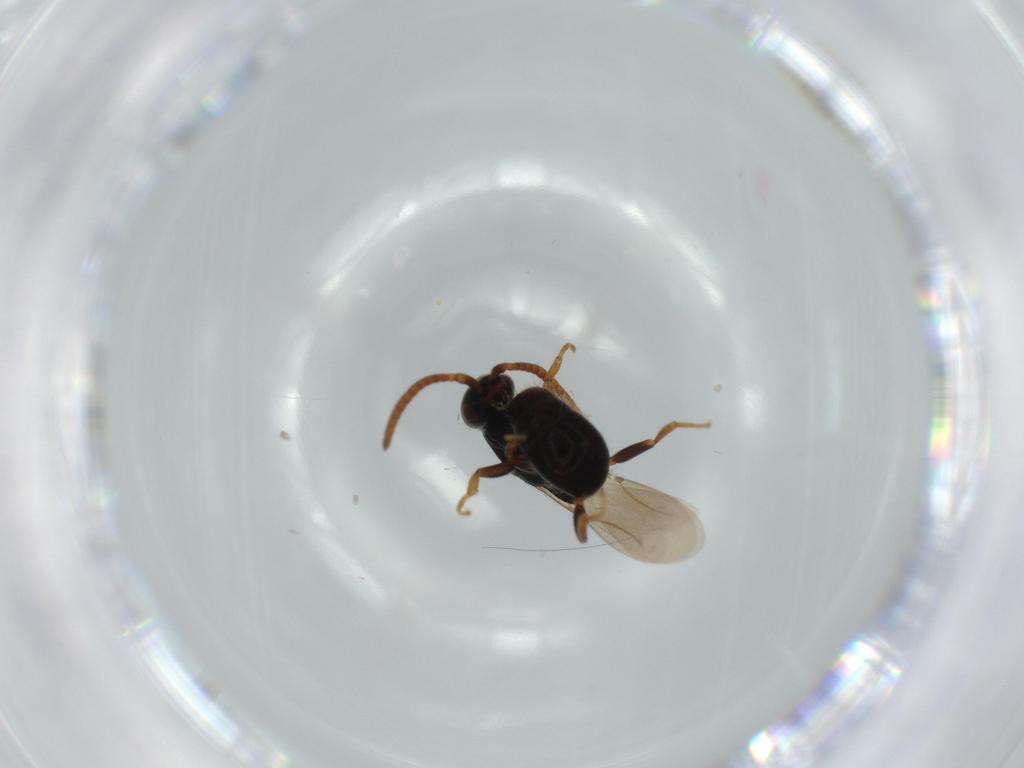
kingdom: Animalia
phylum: Arthropoda
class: Insecta
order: Hymenoptera
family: Bethylidae
